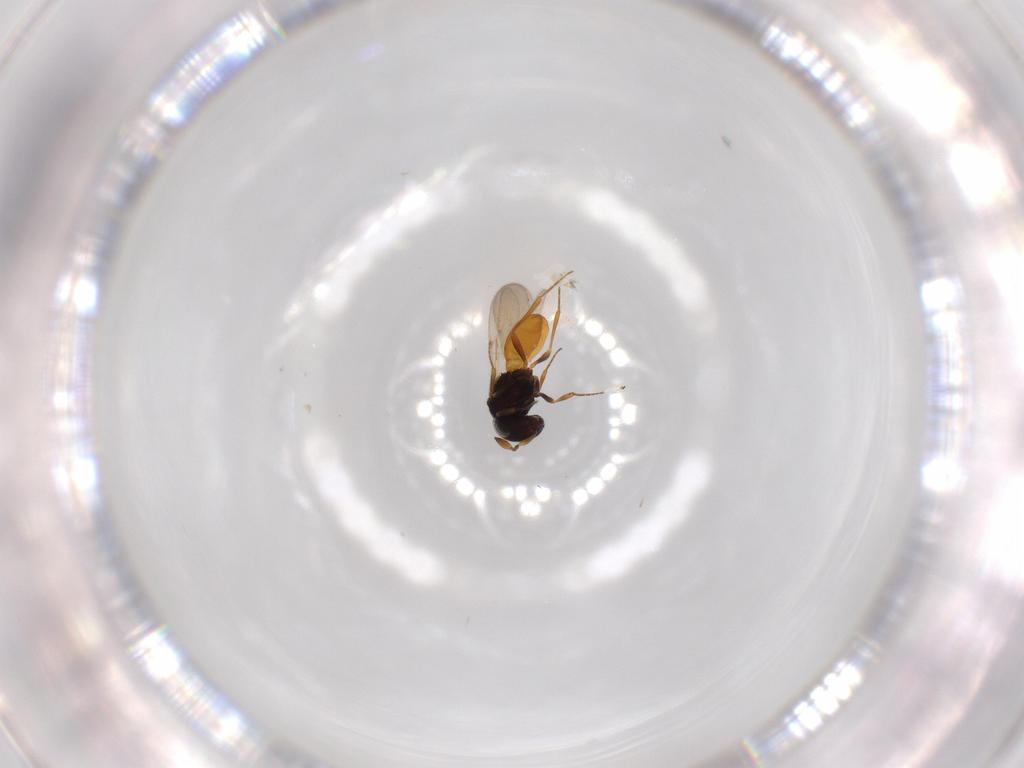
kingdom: Animalia
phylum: Arthropoda
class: Insecta
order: Hymenoptera
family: Scelionidae
